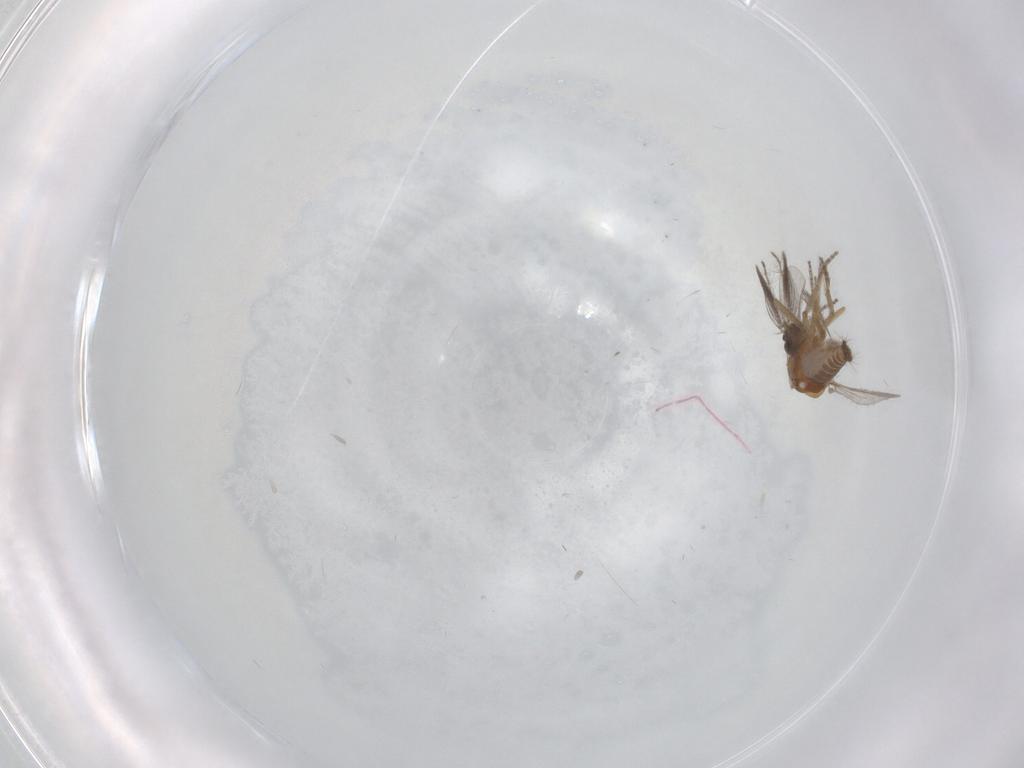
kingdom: Animalia
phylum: Arthropoda
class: Insecta
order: Diptera
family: Ceratopogonidae
